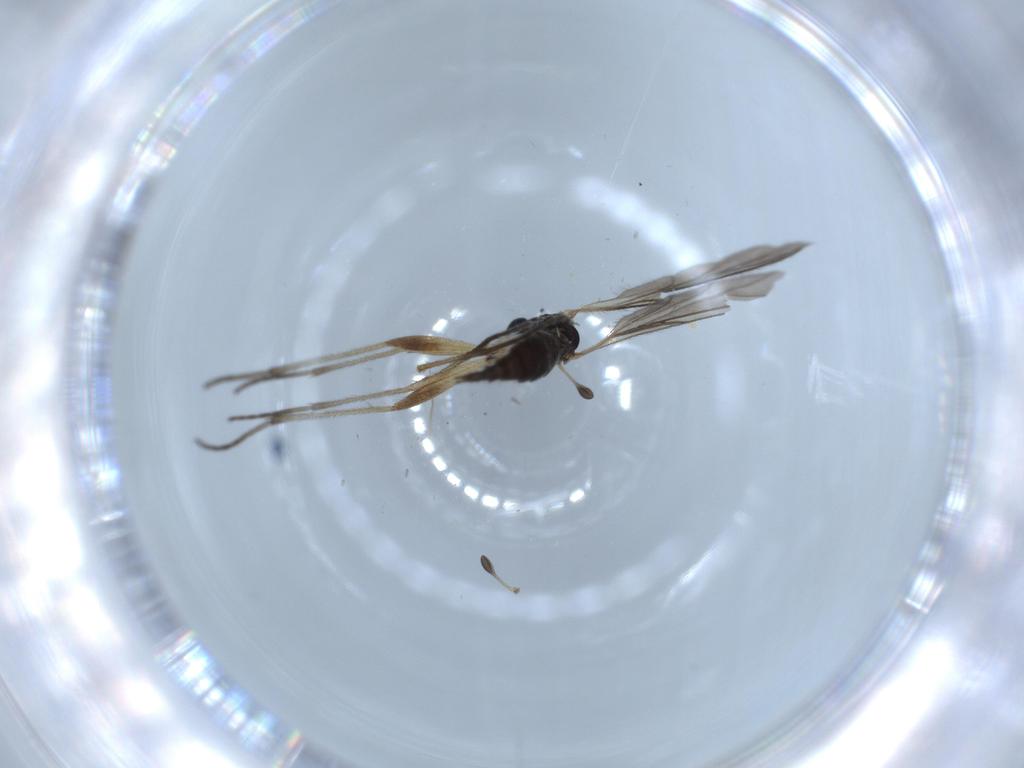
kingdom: Animalia
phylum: Arthropoda
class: Insecta
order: Diptera
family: Sciaridae
